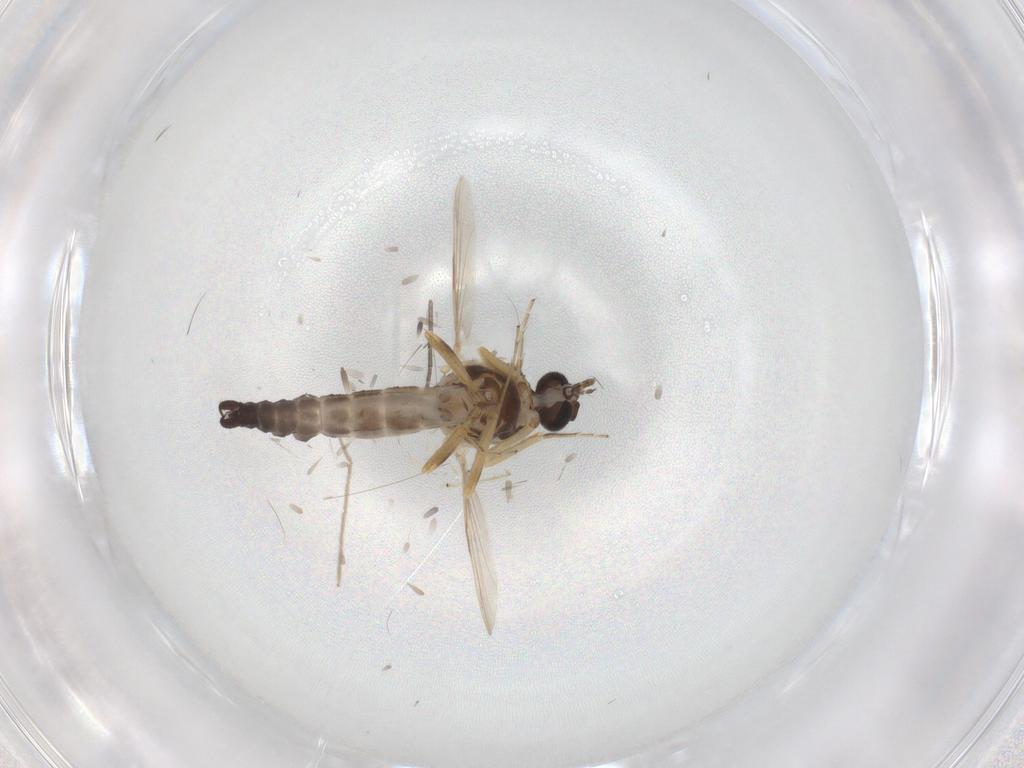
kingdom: Animalia
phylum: Arthropoda
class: Insecta
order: Diptera
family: Ceratopogonidae
